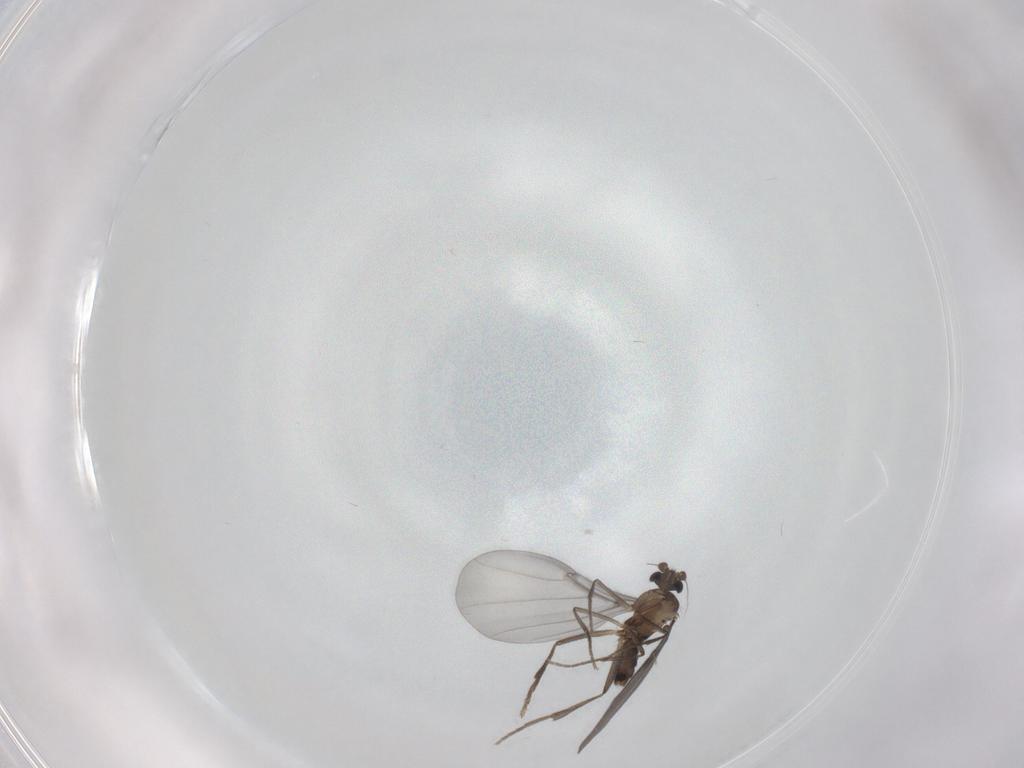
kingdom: Animalia
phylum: Arthropoda
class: Insecta
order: Diptera
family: Phoridae
